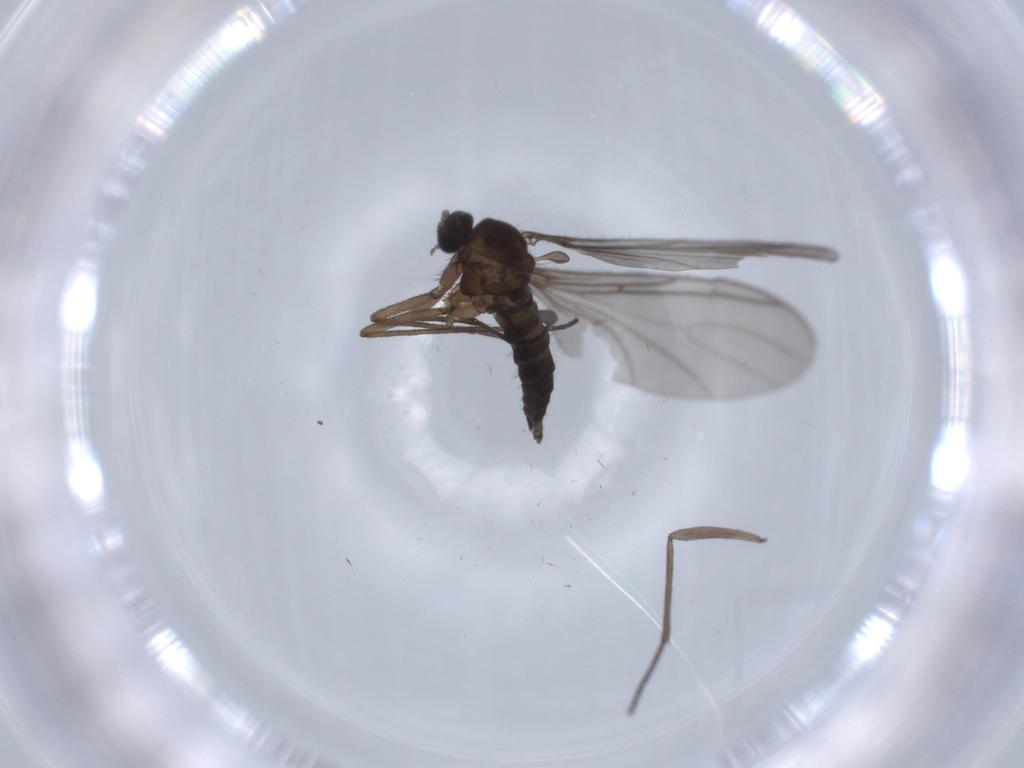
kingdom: Animalia
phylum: Arthropoda
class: Insecta
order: Diptera
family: Sciaridae
